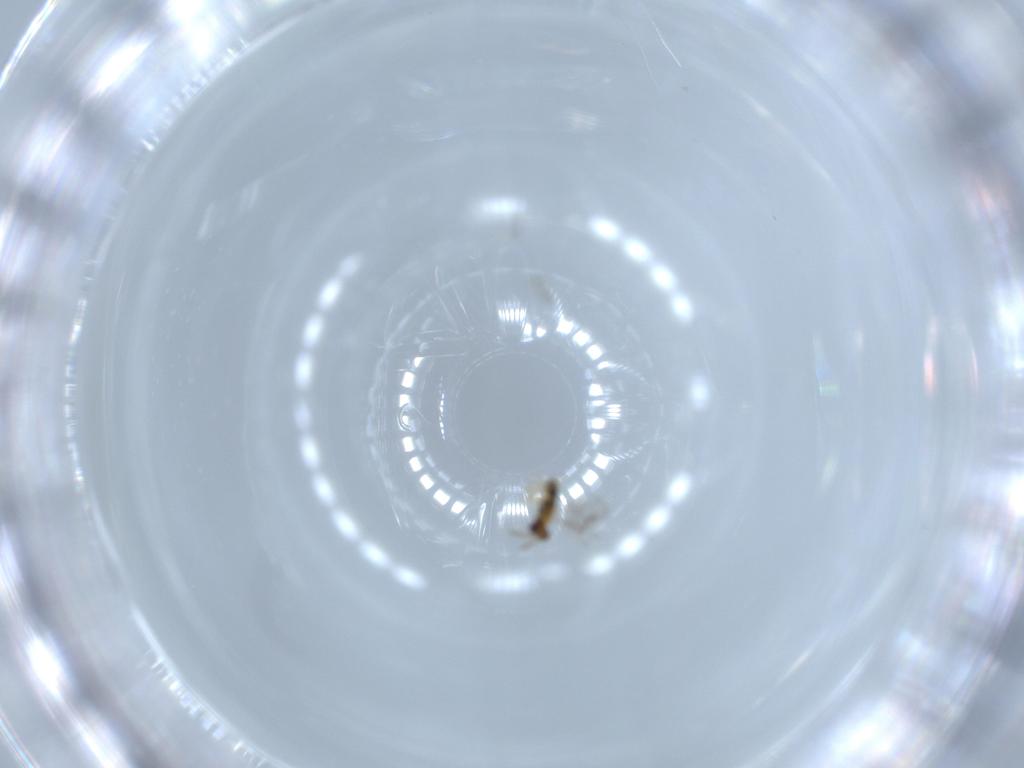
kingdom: Animalia
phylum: Arthropoda
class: Insecta
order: Hymenoptera
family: Aphelinidae
